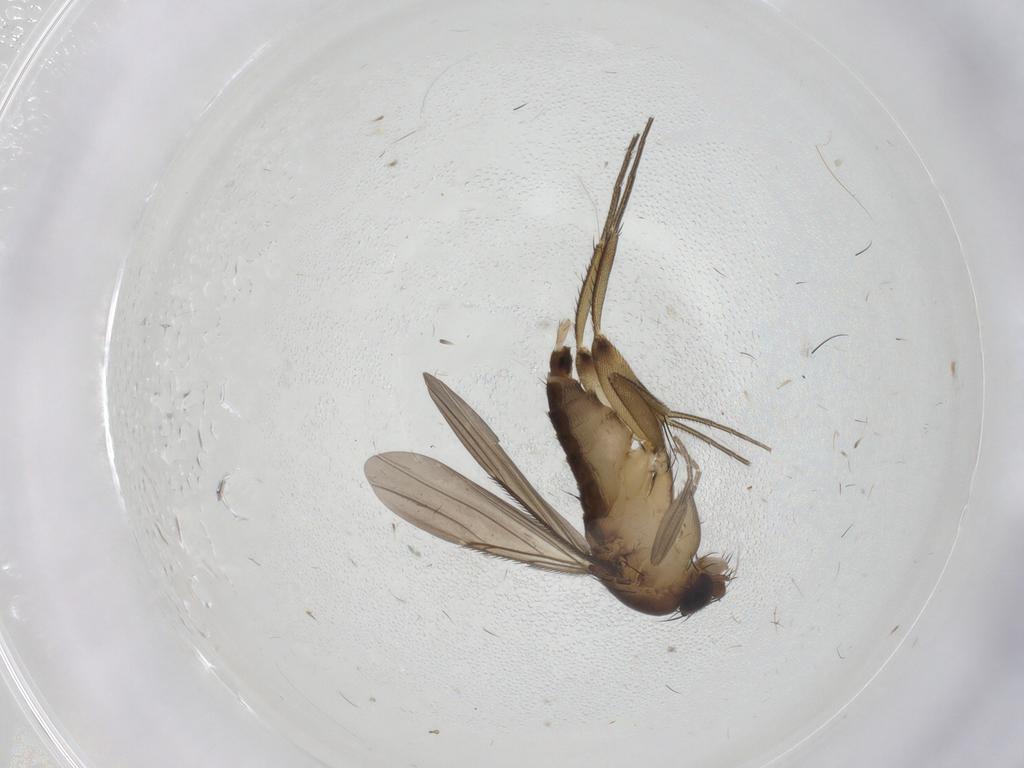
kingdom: Animalia
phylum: Arthropoda
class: Insecta
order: Diptera
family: Phoridae
